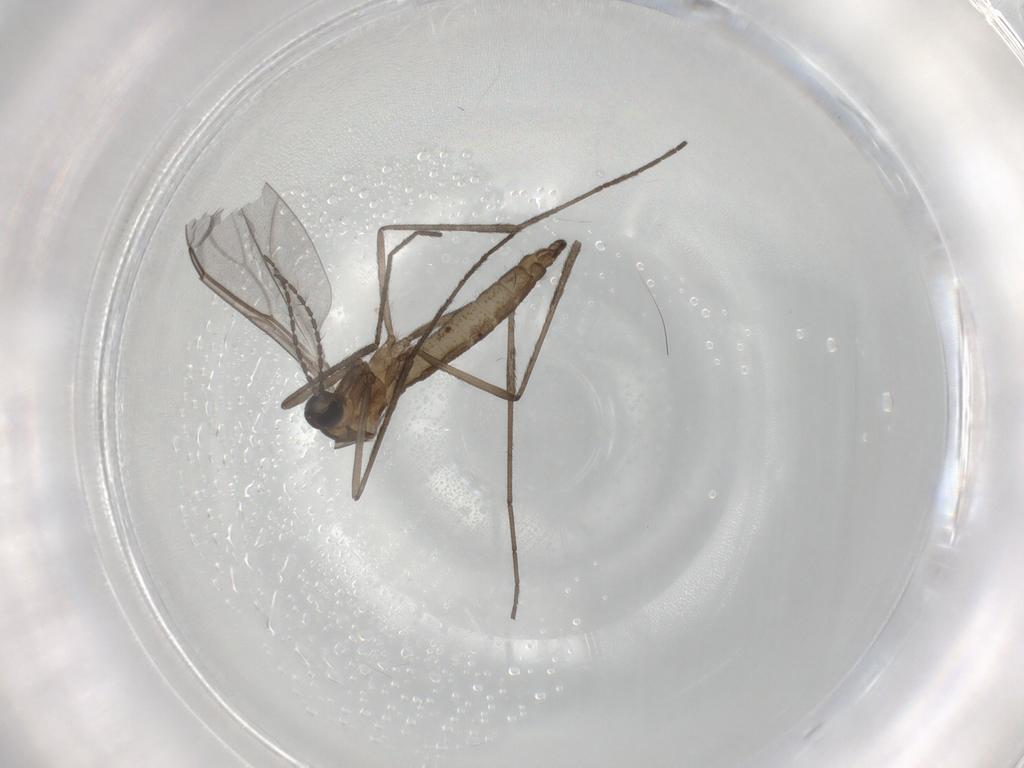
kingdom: Animalia
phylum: Arthropoda
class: Insecta
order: Diptera
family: Cecidomyiidae
